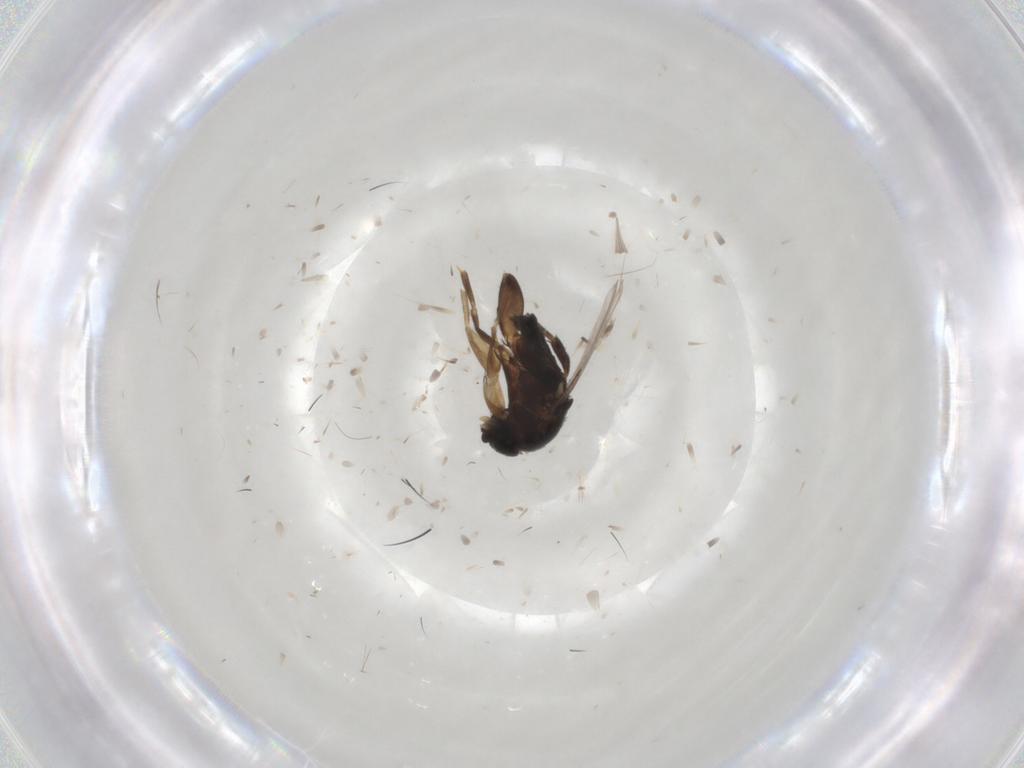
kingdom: Animalia
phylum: Arthropoda
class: Insecta
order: Diptera
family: Phoridae
